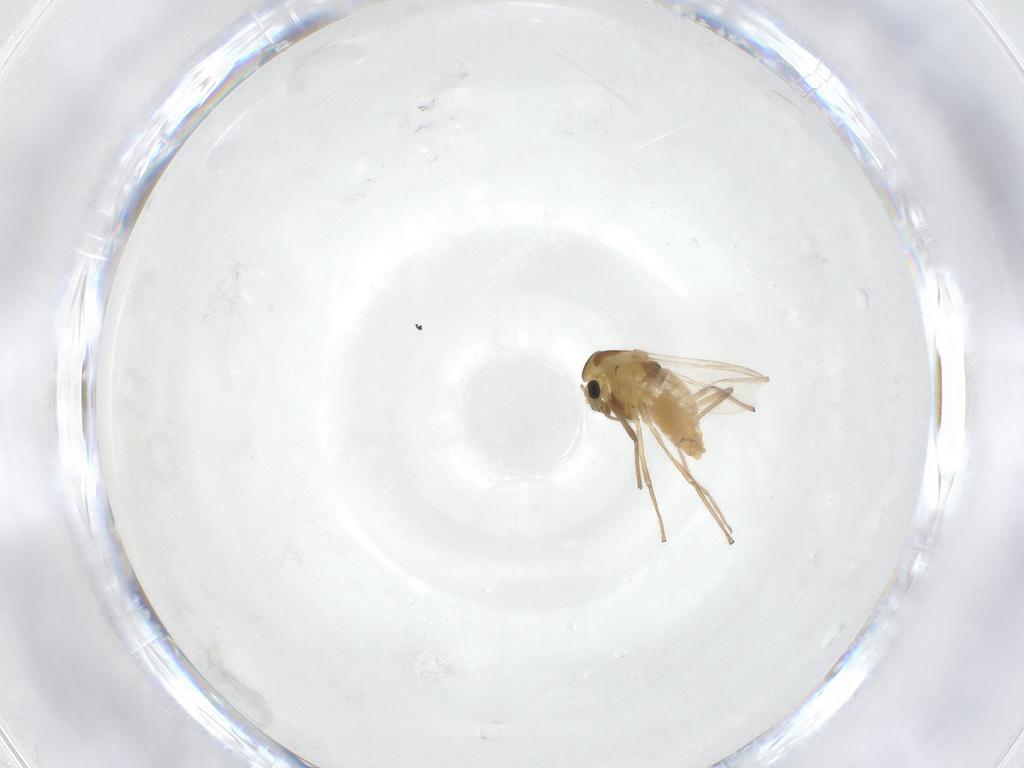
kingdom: Animalia
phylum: Arthropoda
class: Insecta
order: Diptera
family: Chironomidae
